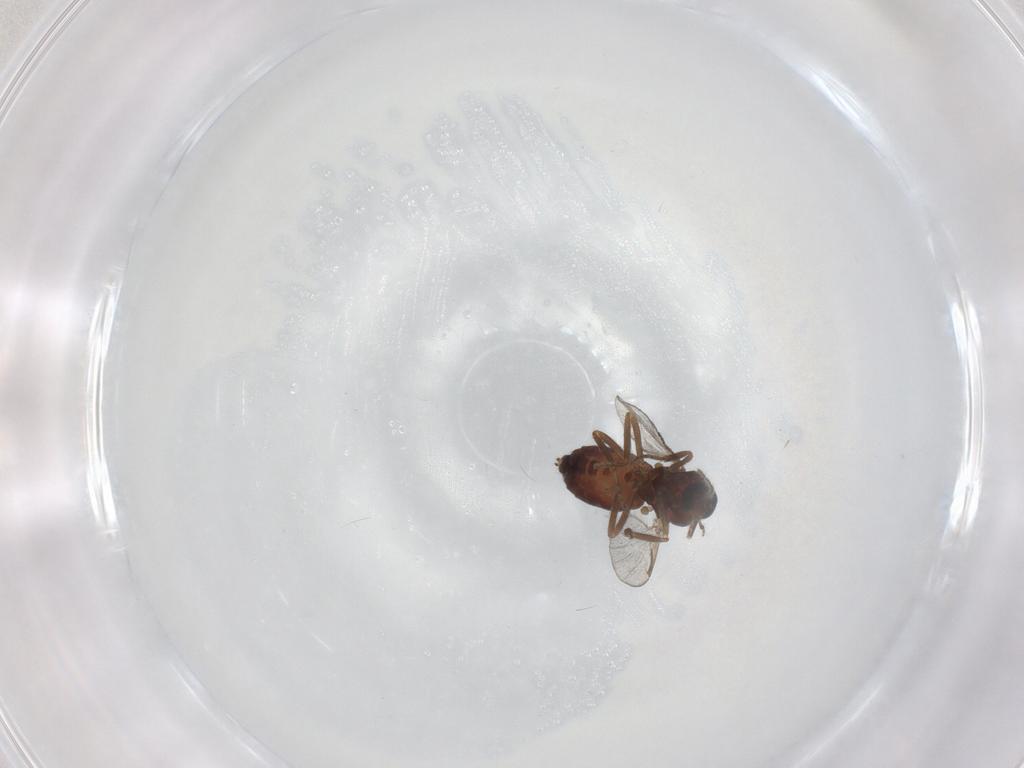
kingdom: Animalia
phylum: Arthropoda
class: Insecta
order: Diptera
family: Ceratopogonidae
